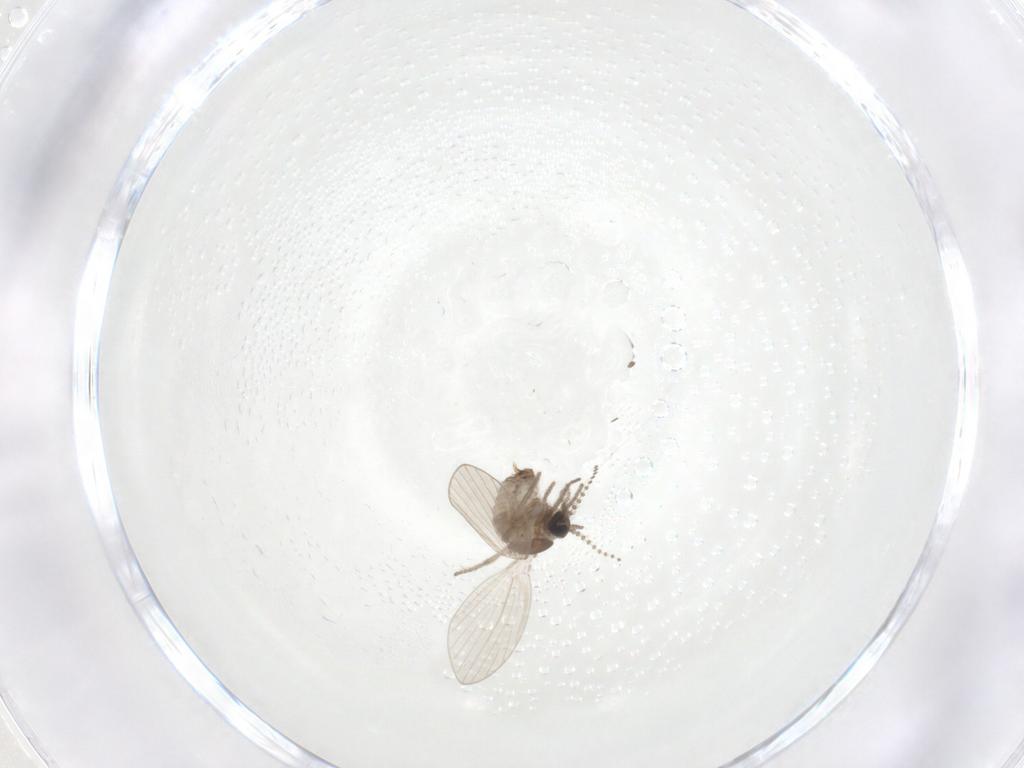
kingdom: Animalia
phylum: Arthropoda
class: Insecta
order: Diptera
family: Psychodidae
